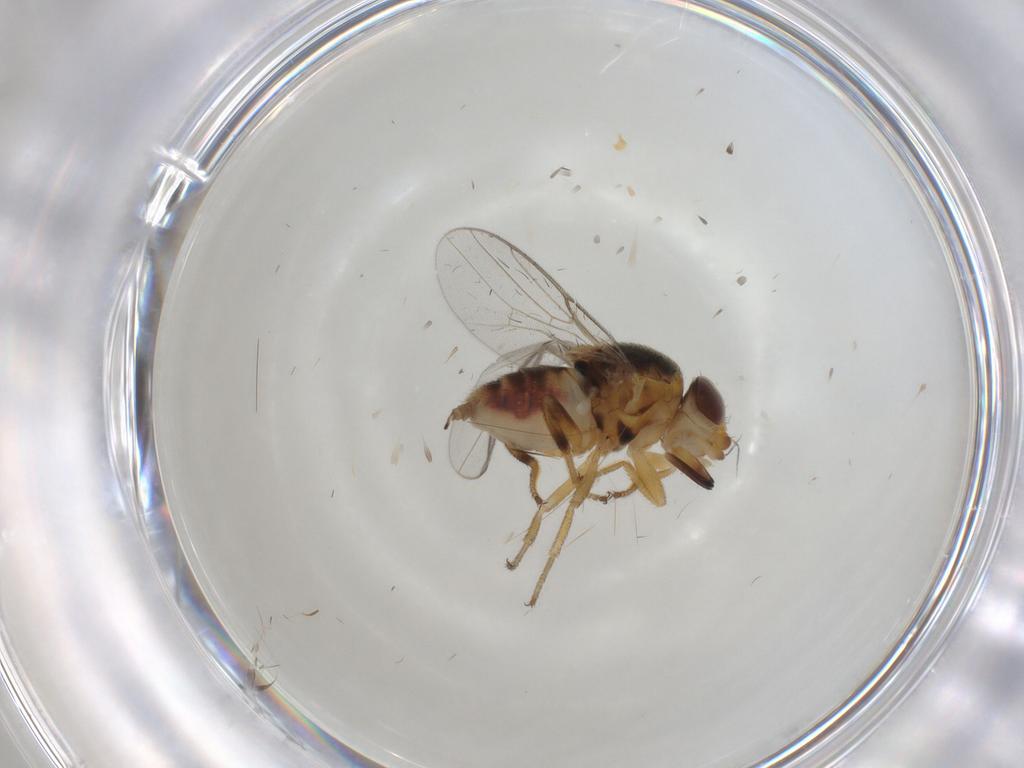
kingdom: Animalia
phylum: Arthropoda
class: Insecta
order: Diptera
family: Chloropidae
